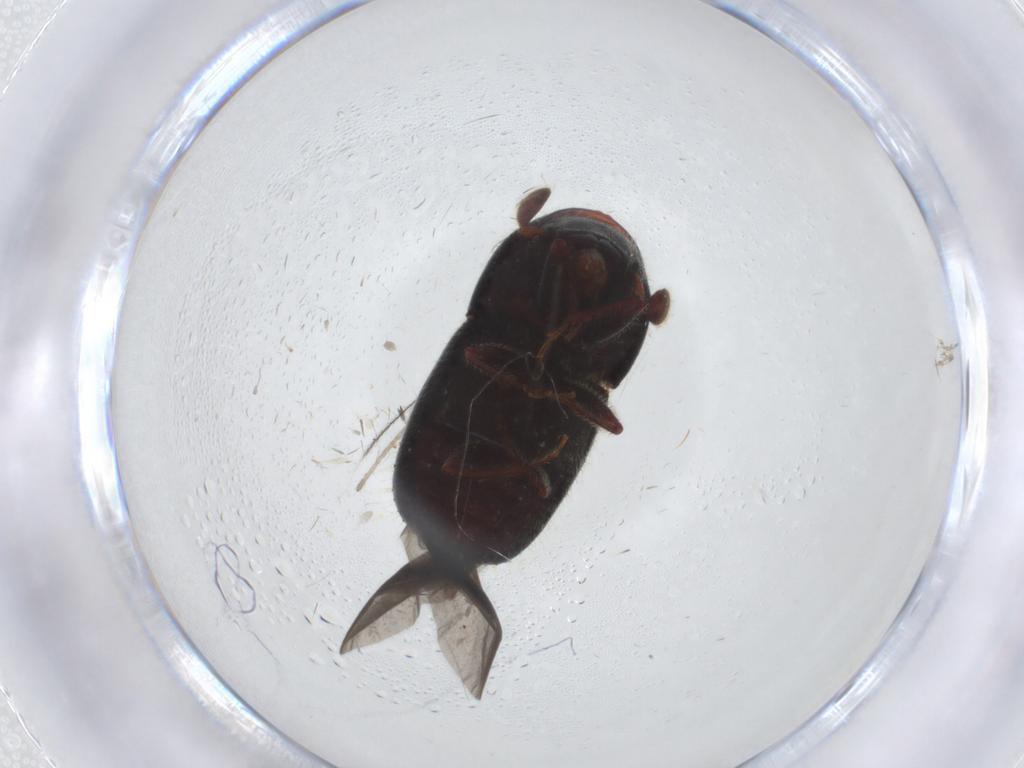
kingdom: Animalia
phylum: Arthropoda
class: Insecta
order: Coleoptera
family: Curculionidae
